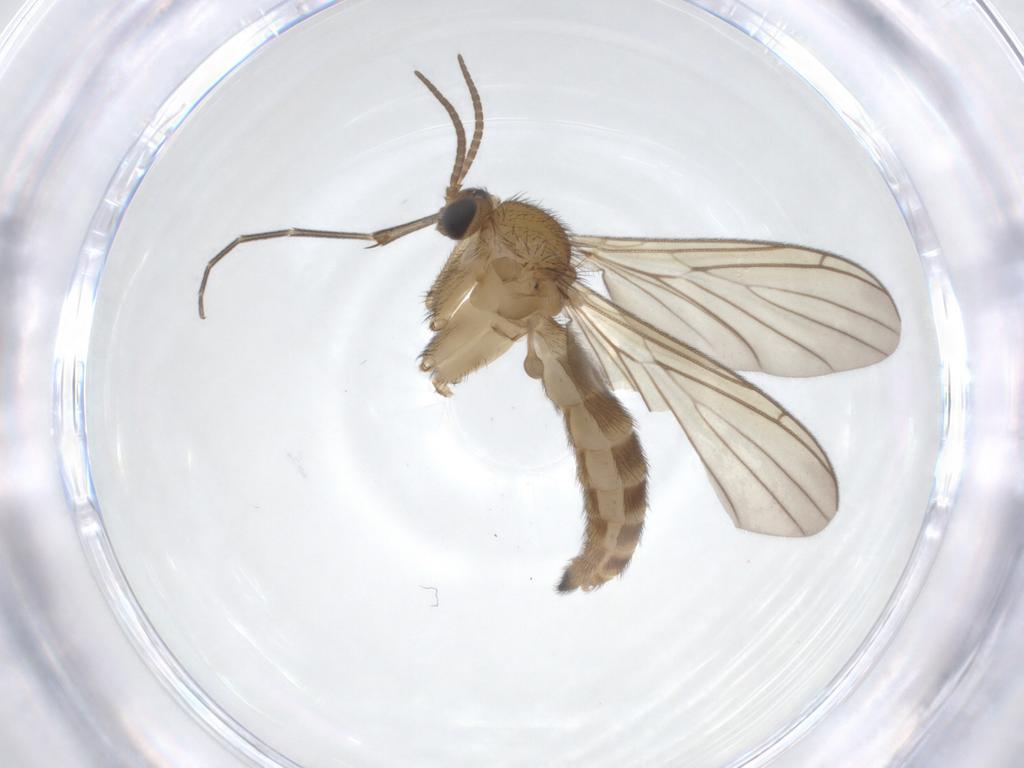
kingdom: Animalia
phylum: Arthropoda
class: Insecta
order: Diptera
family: Keroplatidae
